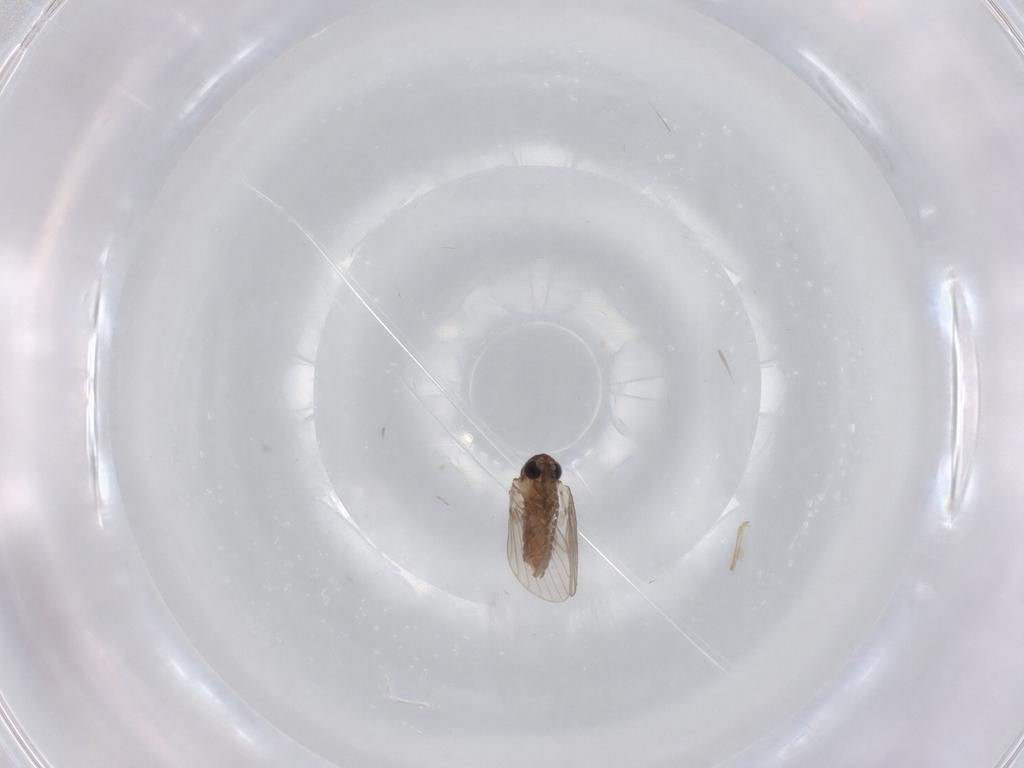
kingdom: Animalia
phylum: Arthropoda
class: Insecta
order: Diptera
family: Ceratopogonidae
